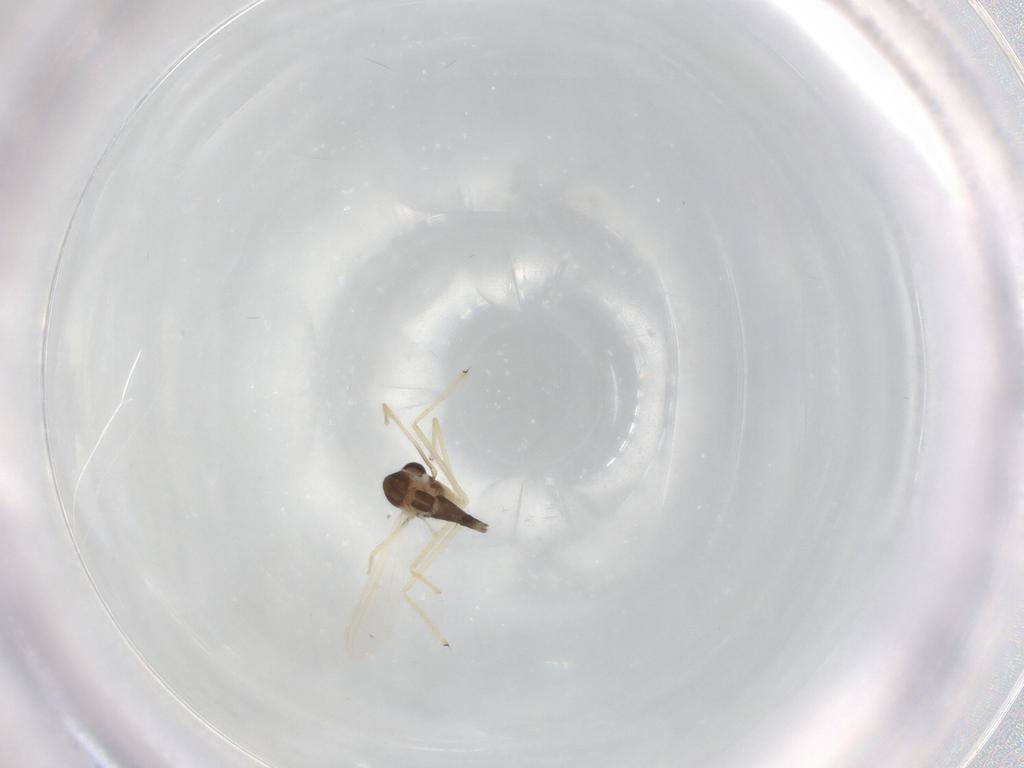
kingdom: Animalia
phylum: Arthropoda
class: Insecta
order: Diptera
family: Chironomidae
